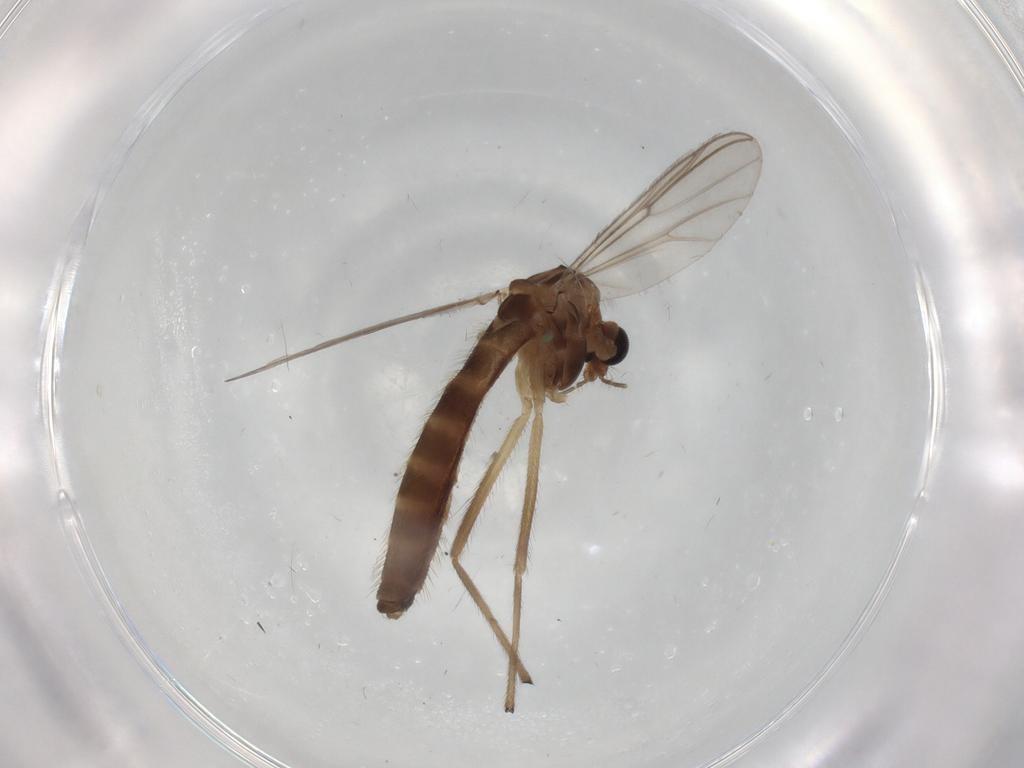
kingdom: Animalia
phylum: Arthropoda
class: Insecta
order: Diptera
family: Chironomidae
